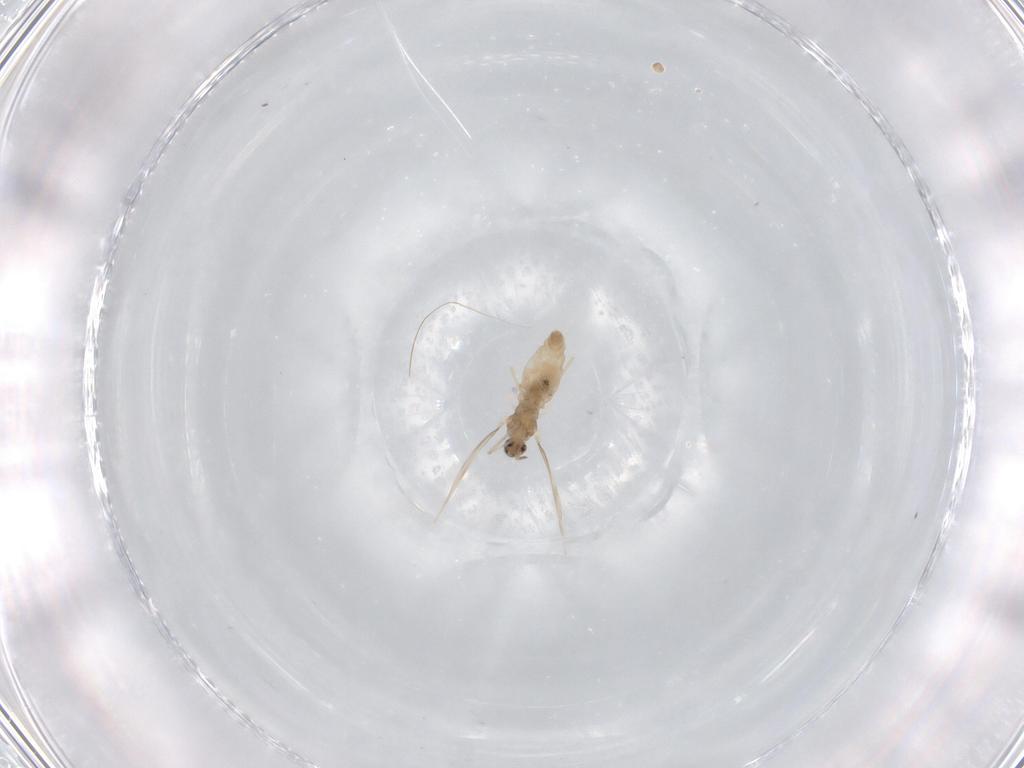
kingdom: Animalia
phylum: Arthropoda
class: Insecta
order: Diptera
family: Cecidomyiidae
